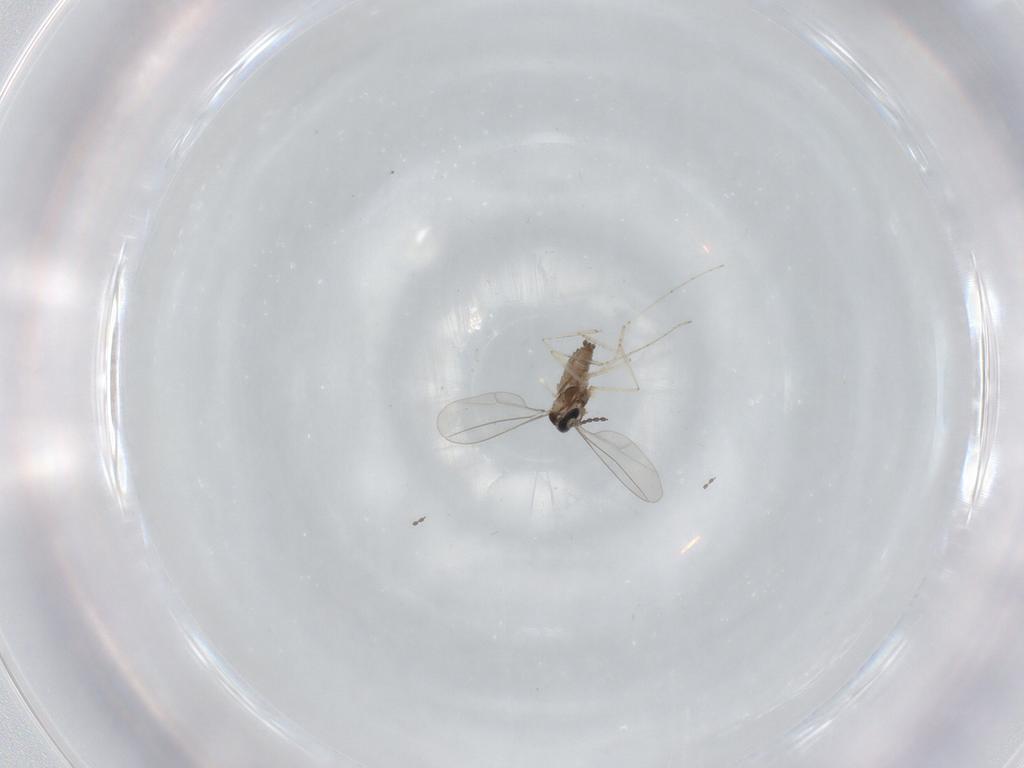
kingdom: Animalia
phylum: Arthropoda
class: Insecta
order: Diptera
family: Cecidomyiidae
